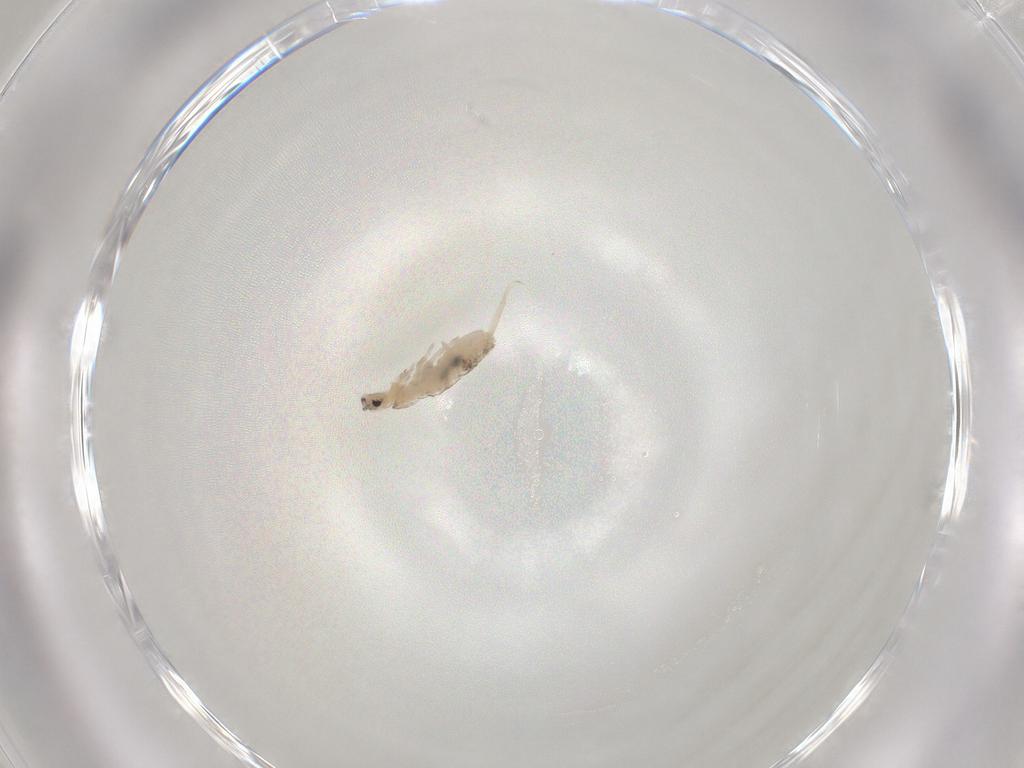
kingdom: Animalia
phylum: Arthropoda
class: Collembola
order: Entomobryomorpha
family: Entomobryidae
